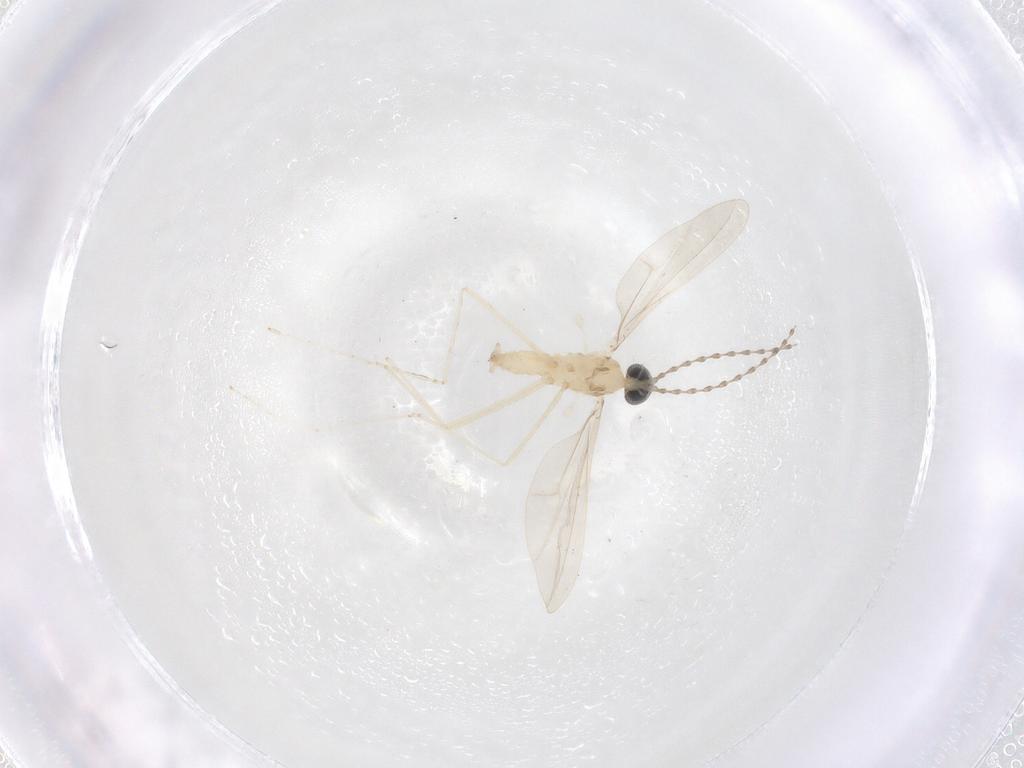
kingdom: Animalia
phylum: Arthropoda
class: Insecta
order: Diptera
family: Cecidomyiidae
